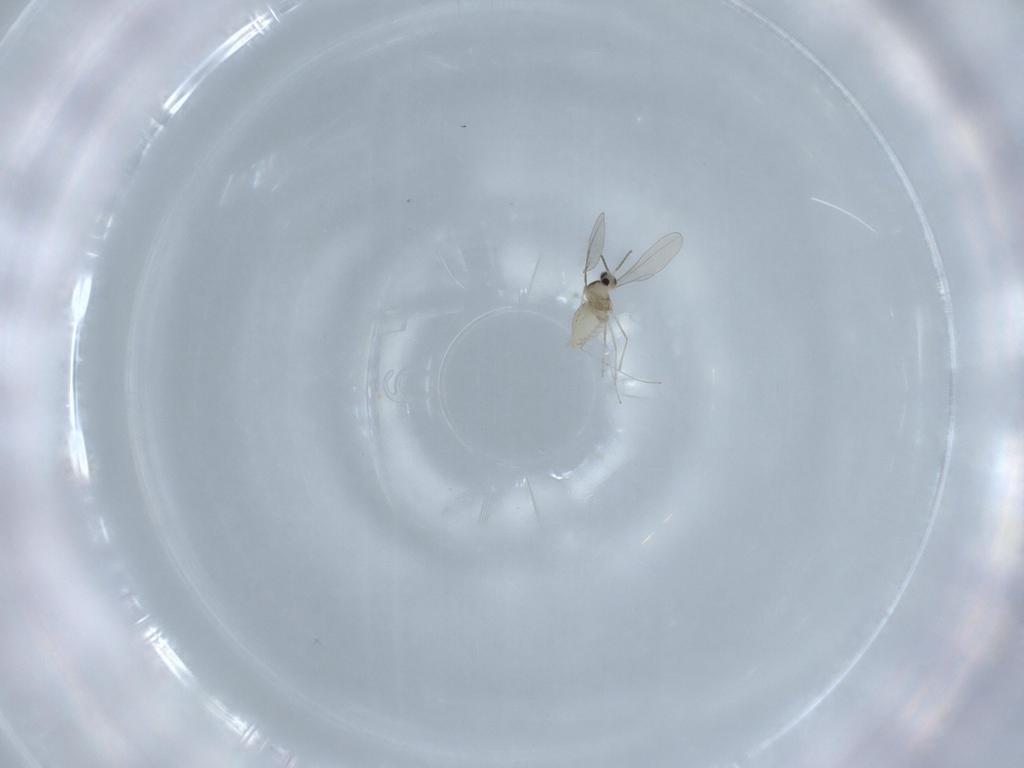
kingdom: Animalia
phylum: Arthropoda
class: Insecta
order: Diptera
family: Cecidomyiidae
